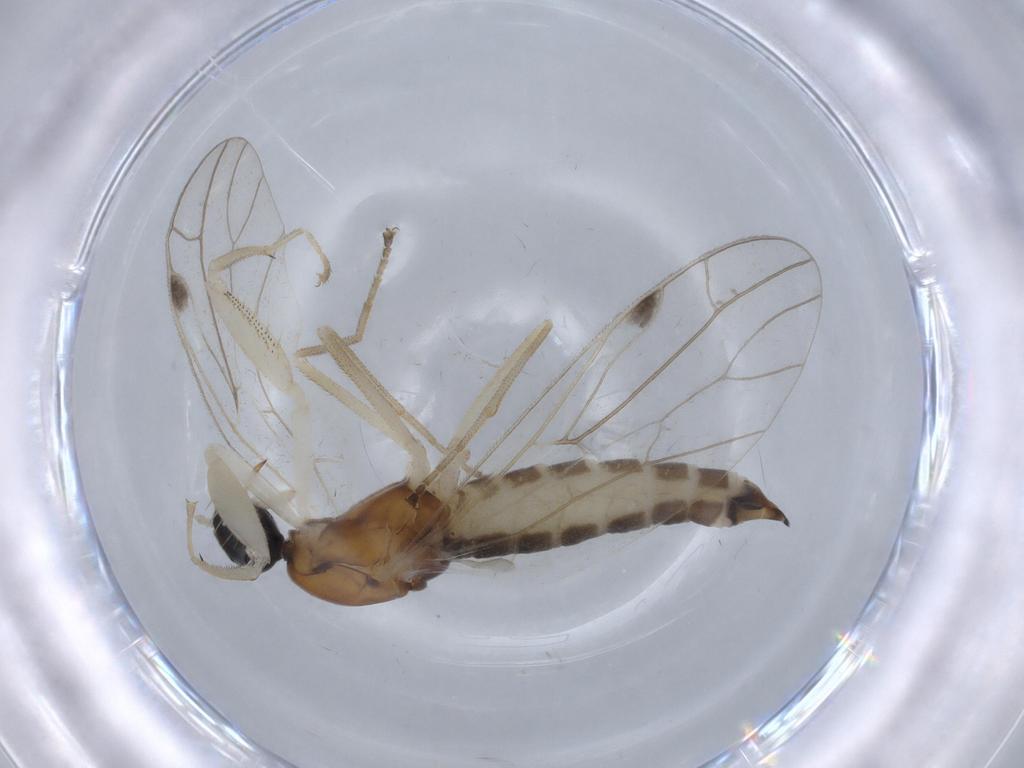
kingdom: Animalia
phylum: Arthropoda
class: Insecta
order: Diptera
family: Empididae
